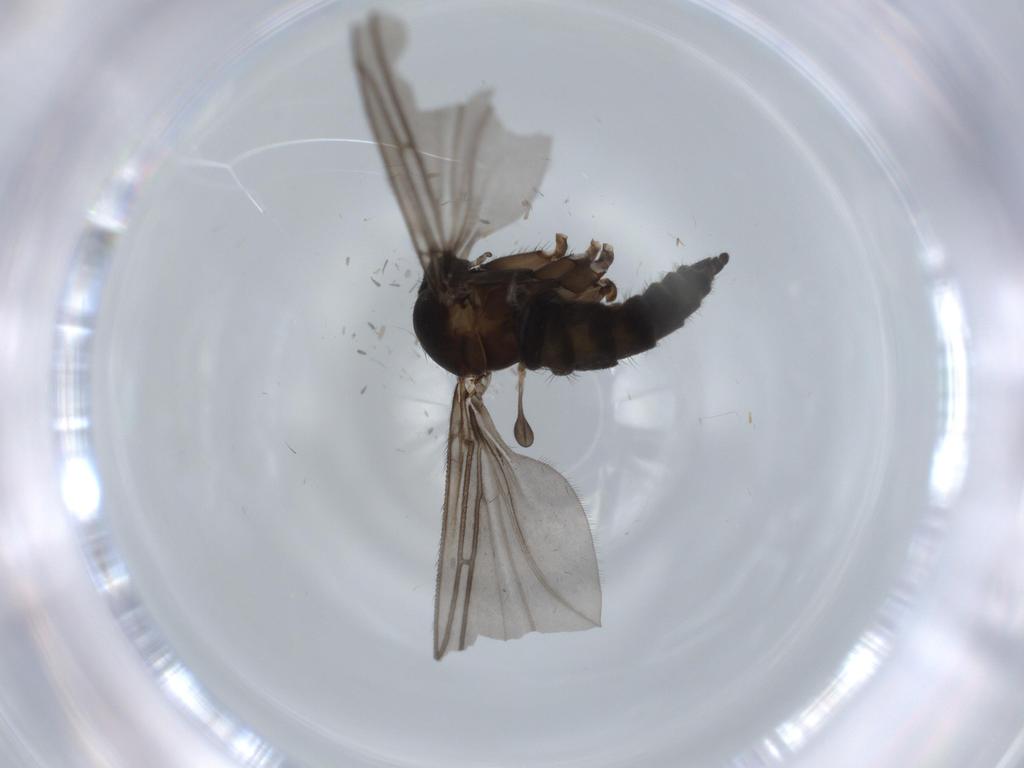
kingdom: Animalia
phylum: Arthropoda
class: Insecta
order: Diptera
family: Sciaridae
